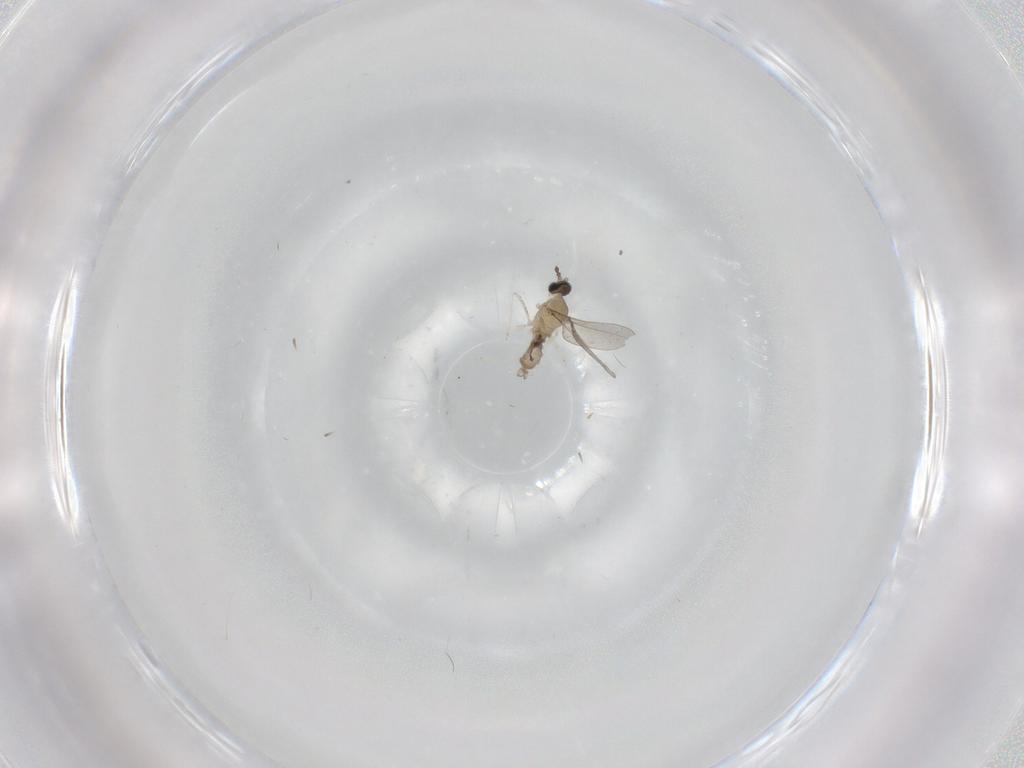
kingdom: Animalia
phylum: Arthropoda
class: Insecta
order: Diptera
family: Cecidomyiidae
